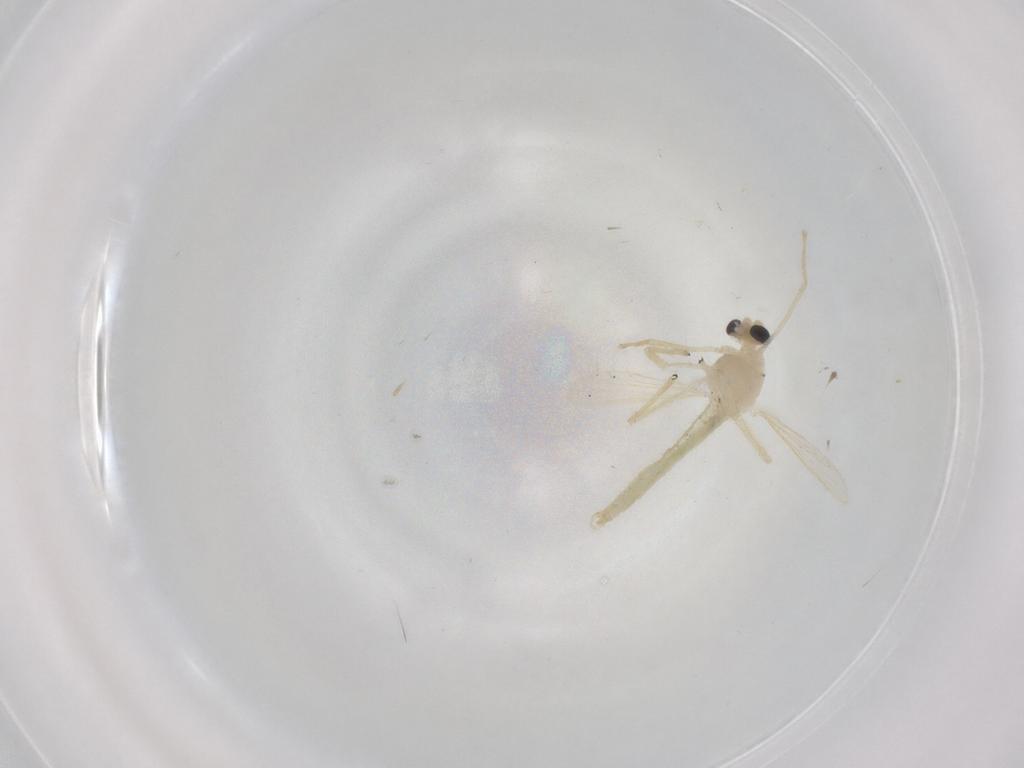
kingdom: Animalia
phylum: Arthropoda
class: Insecta
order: Diptera
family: Chironomidae
